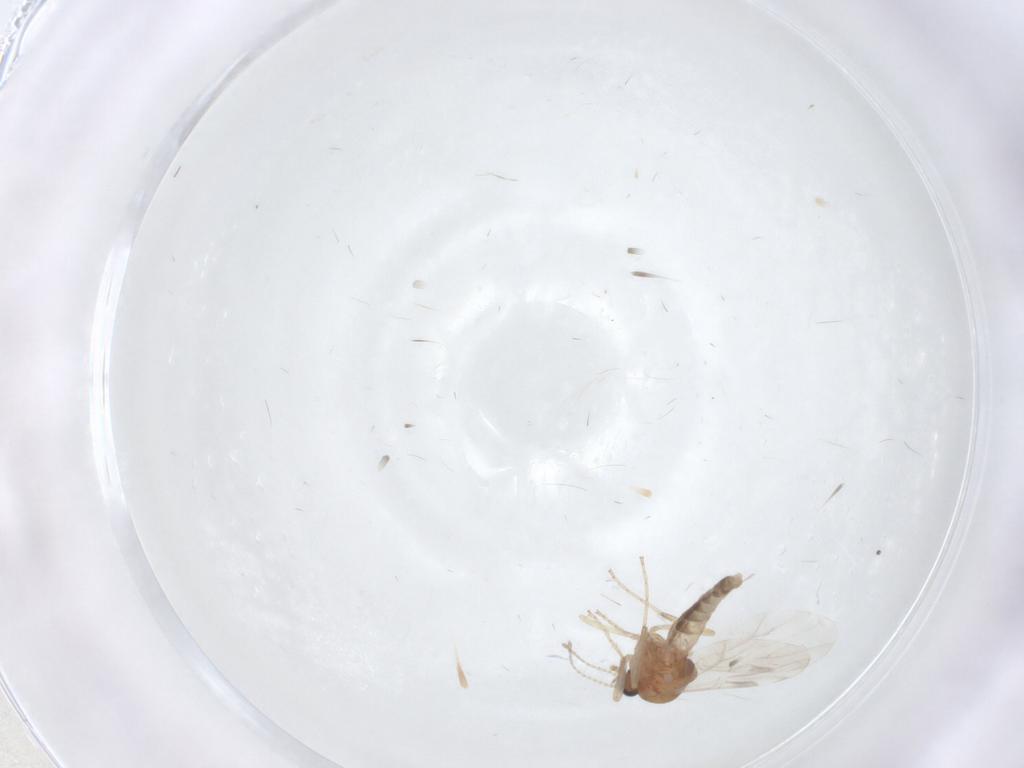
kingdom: Animalia
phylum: Arthropoda
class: Insecta
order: Diptera
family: Ceratopogonidae
